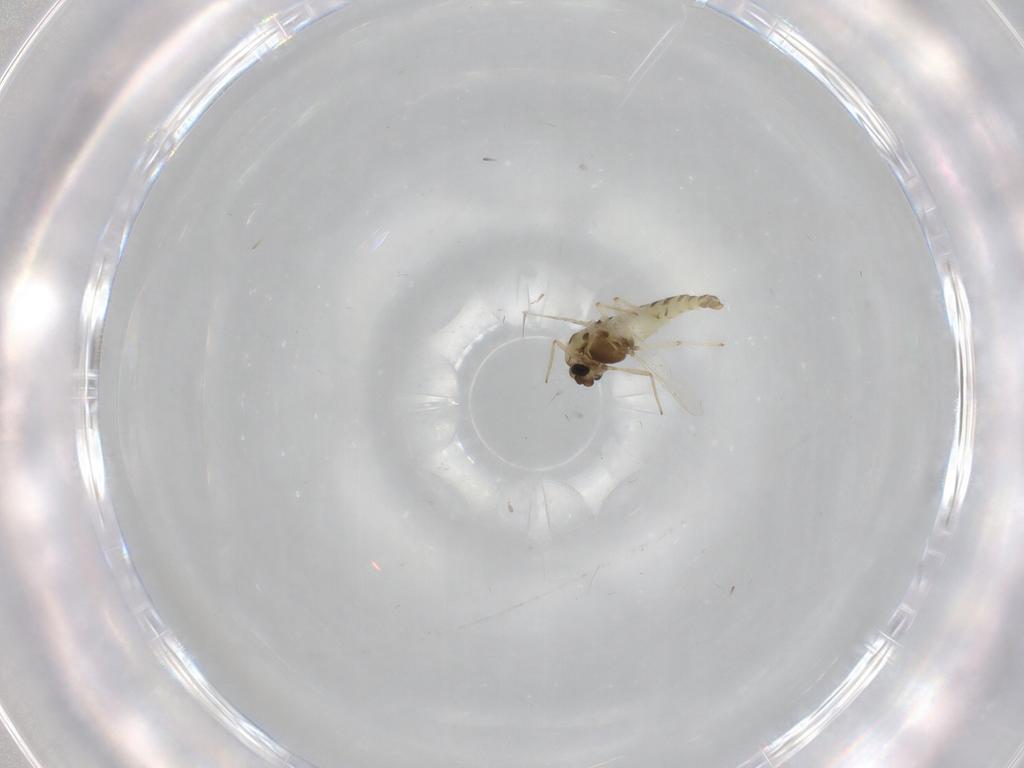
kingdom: Animalia
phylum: Arthropoda
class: Insecta
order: Diptera
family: Chironomidae
